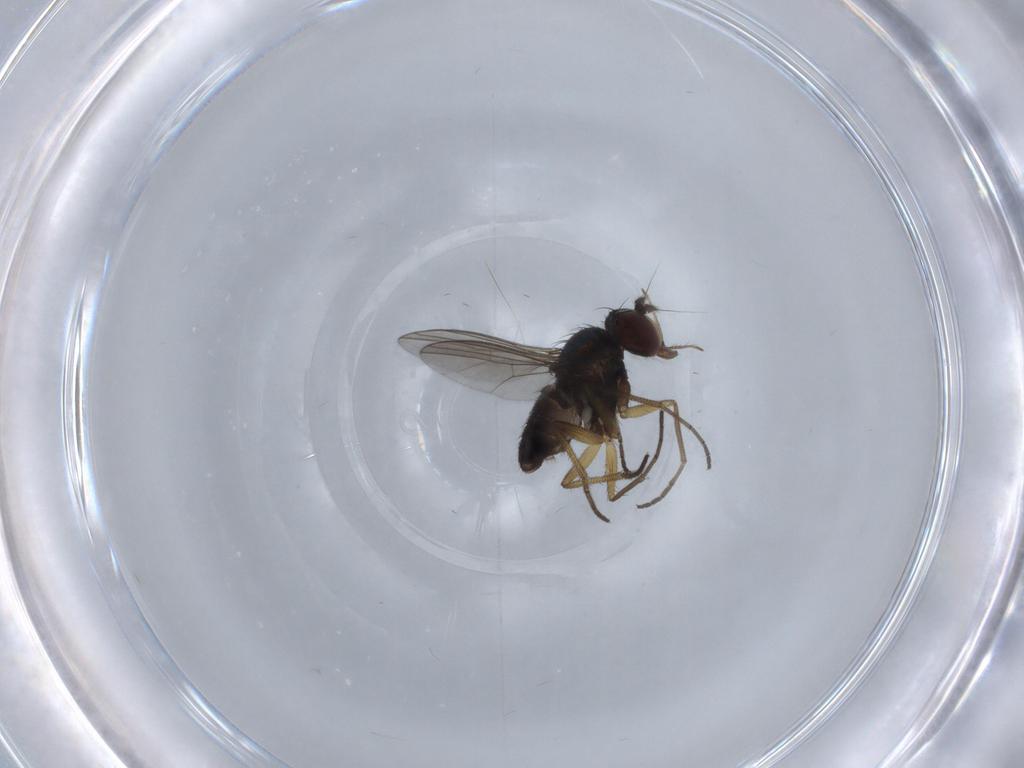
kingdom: Animalia
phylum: Arthropoda
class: Insecta
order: Diptera
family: Dolichopodidae
